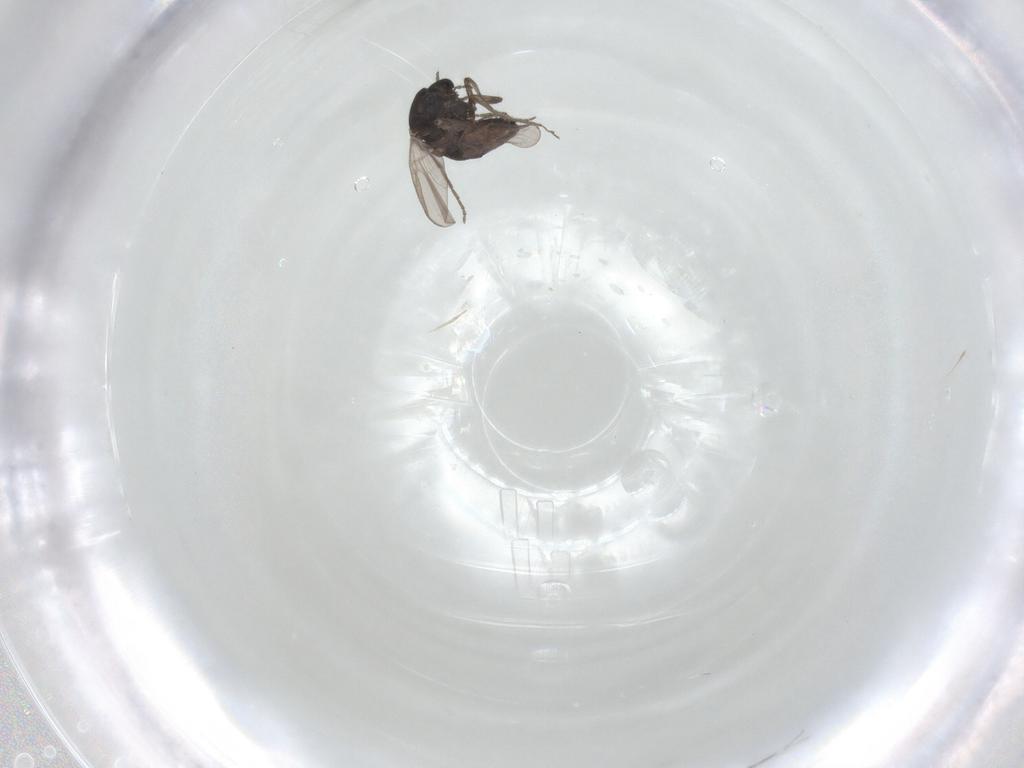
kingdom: Animalia
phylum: Arthropoda
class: Insecta
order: Diptera
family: Chironomidae
